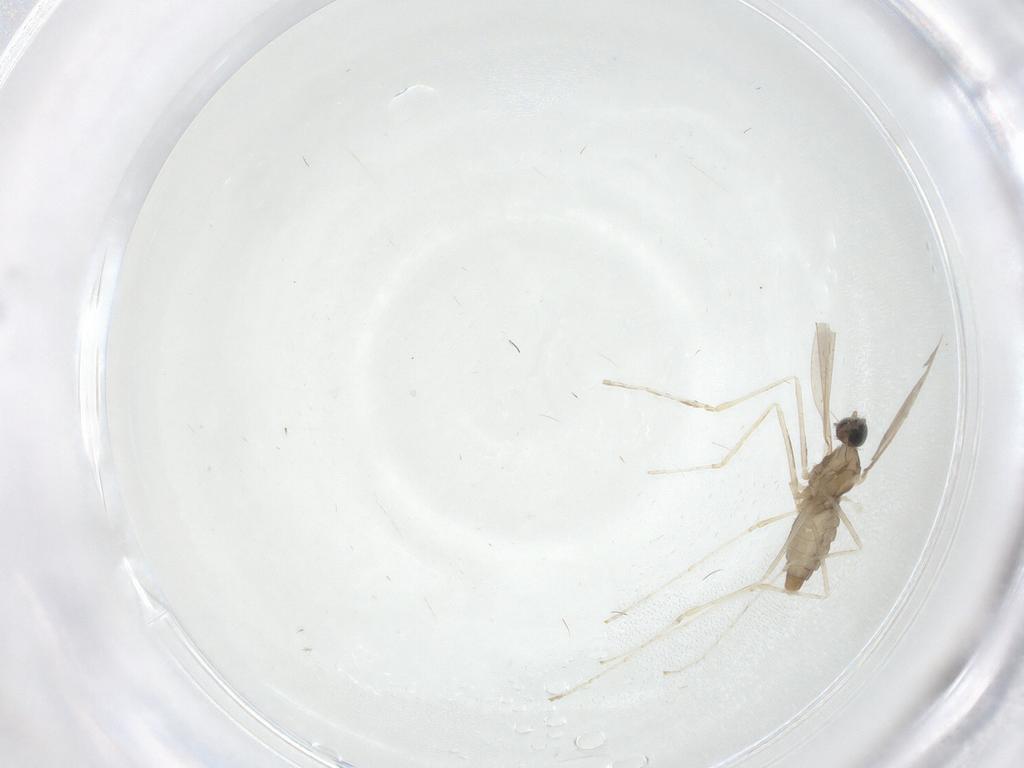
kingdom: Animalia
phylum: Arthropoda
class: Insecta
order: Diptera
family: Cecidomyiidae
